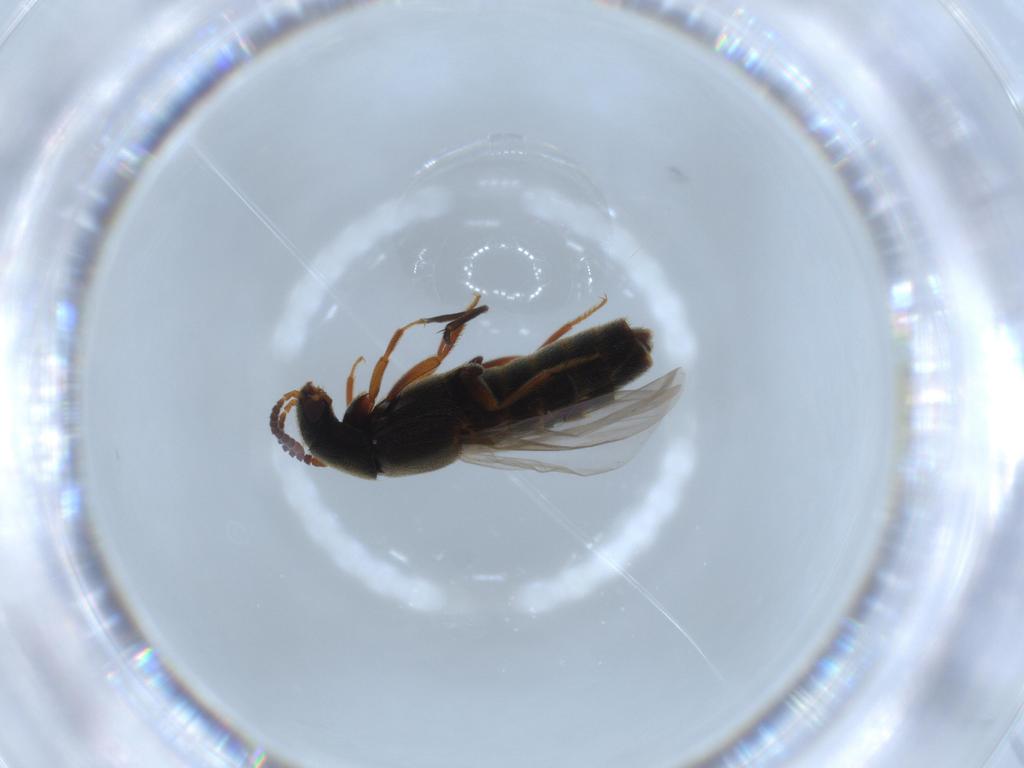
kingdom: Animalia
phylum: Arthropoda
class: Insecta
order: Coleoptera
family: Staphylinidae
